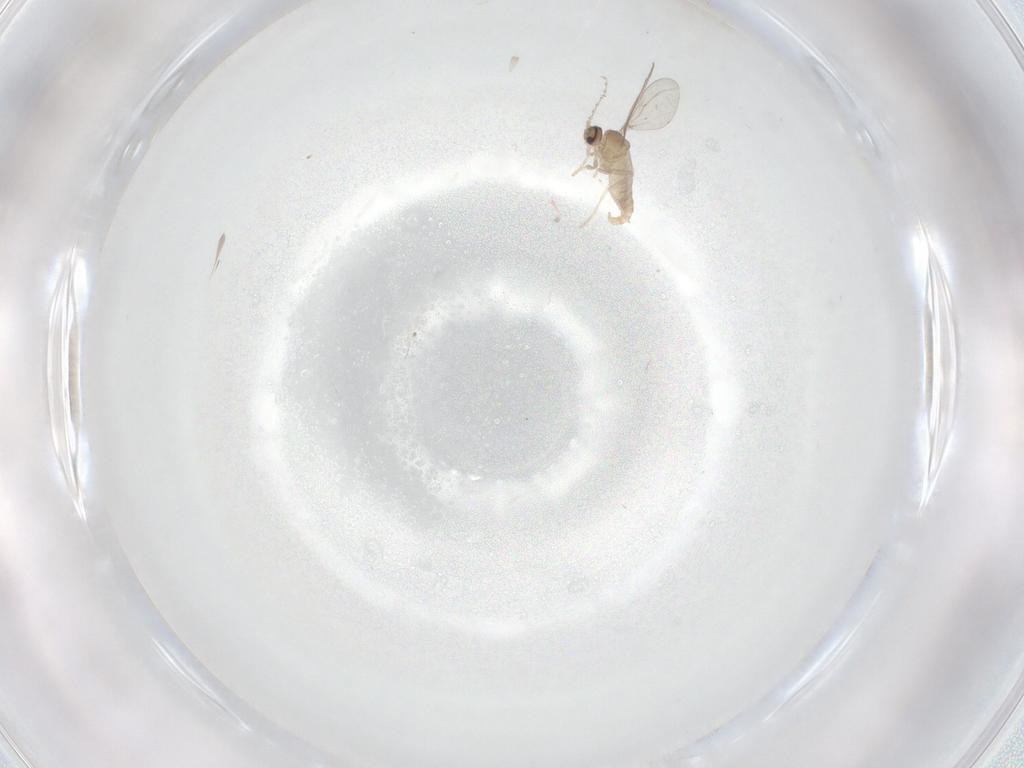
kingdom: Animalia
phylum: Arthropoda
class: Insecta
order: Diptera
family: Cecidomyiidae
